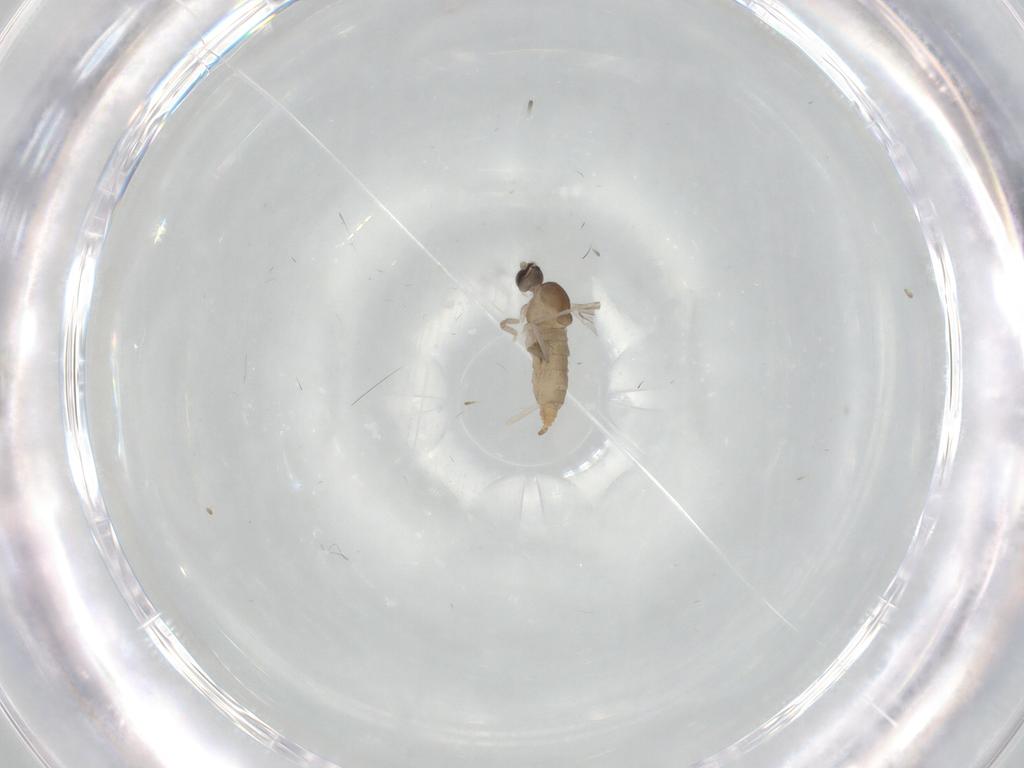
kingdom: Animalia
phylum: Arthropoda
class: Insecta
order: Diptera
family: Cecidomyiidae
